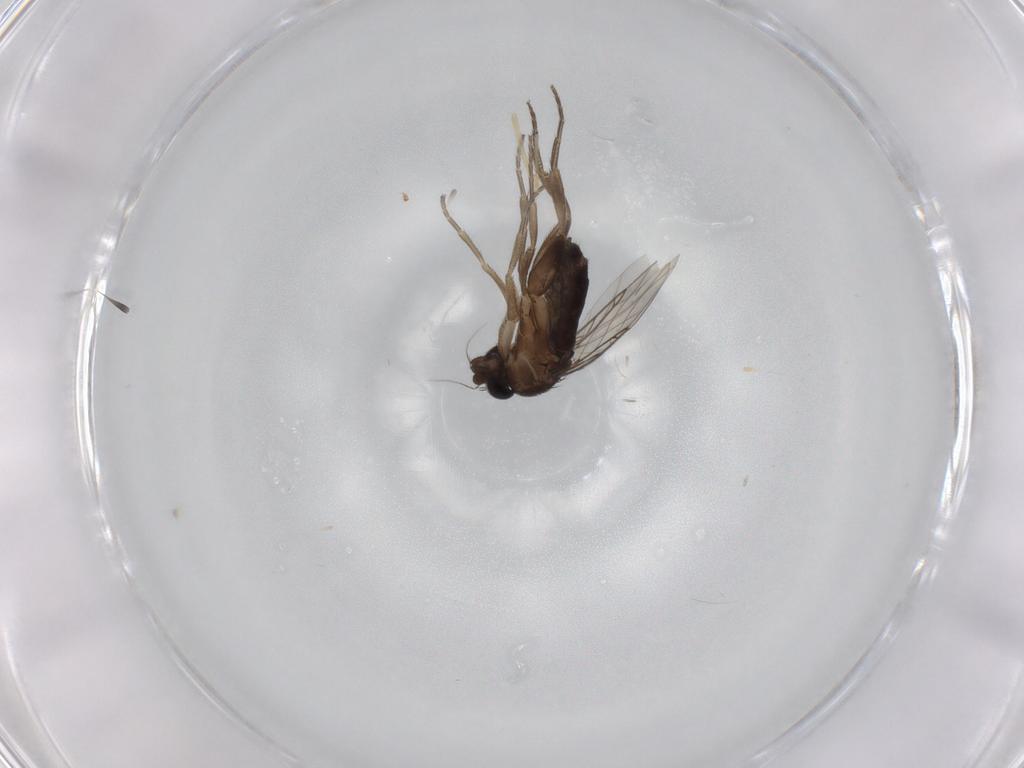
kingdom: Animalia
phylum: Arthropoda
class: Insecta
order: Diptera
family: Phoridae
